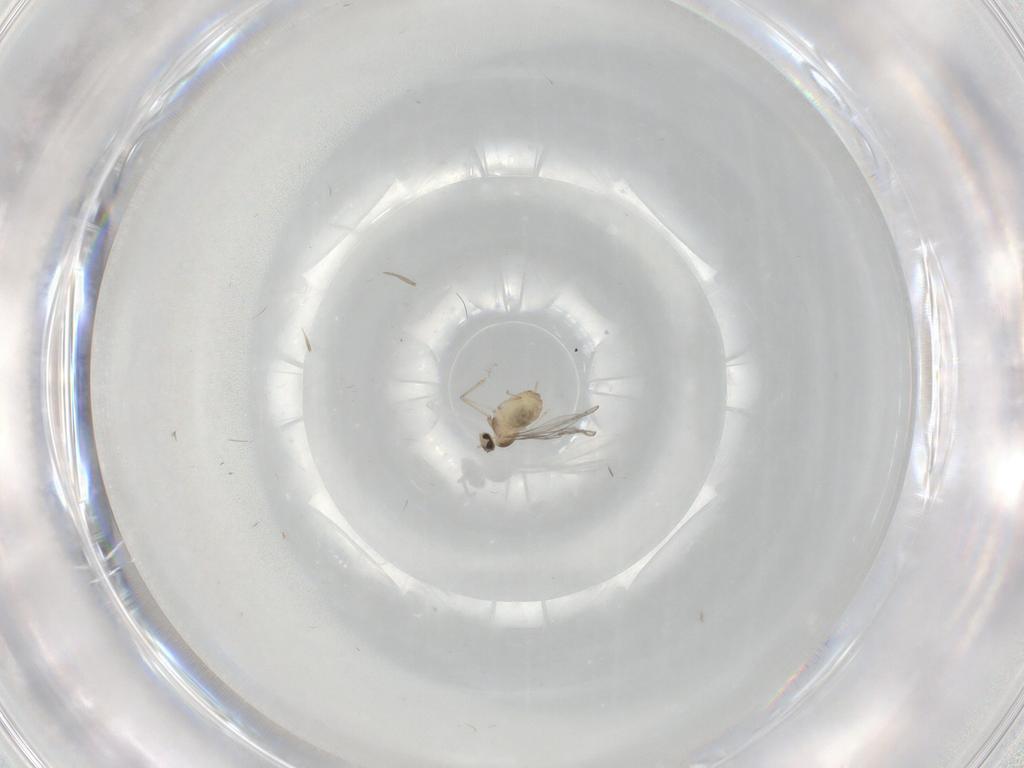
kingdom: Animalia
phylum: Arthropoda
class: Insecta
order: Diptera
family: Cecidomyiidae
